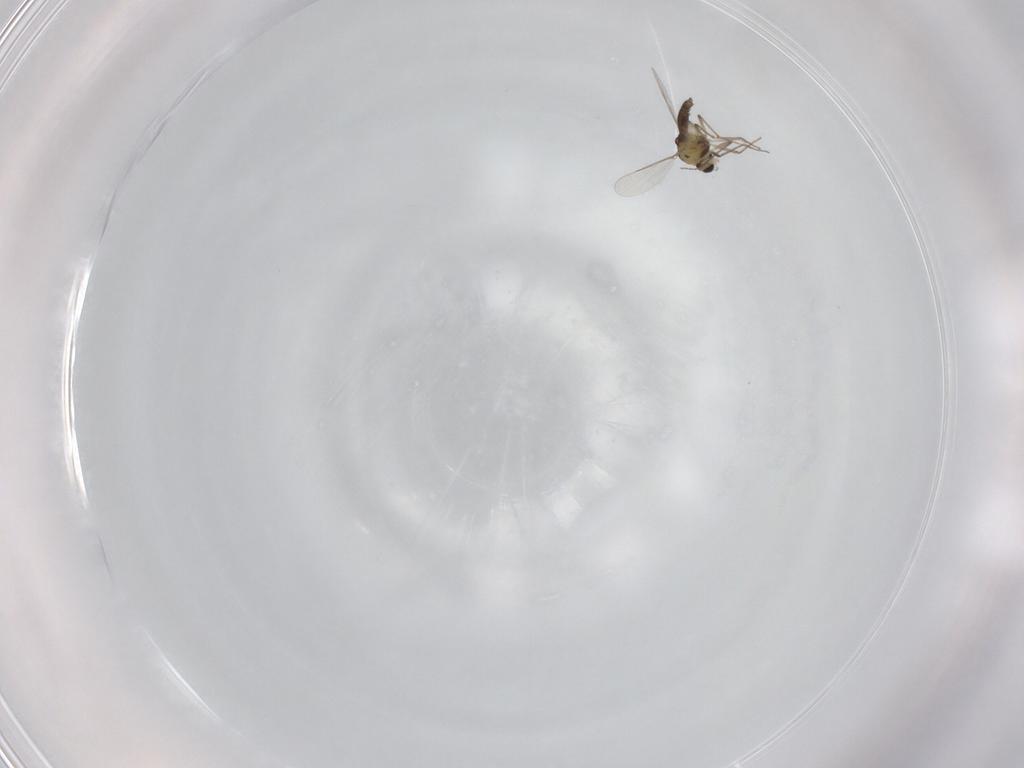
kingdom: Animalia
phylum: Arthropoda
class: Insecta
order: Diptera
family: Chironomidae
